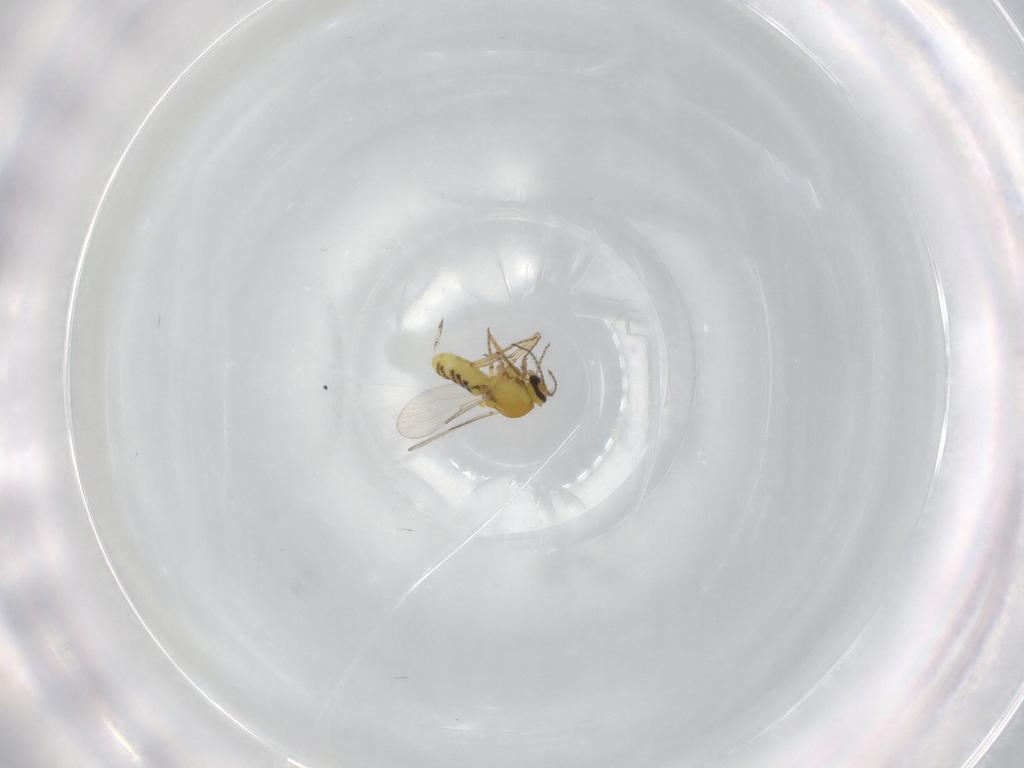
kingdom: Animalia
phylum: Arthropoda
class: Insecta
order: Diptera
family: Ceratopogonidae
